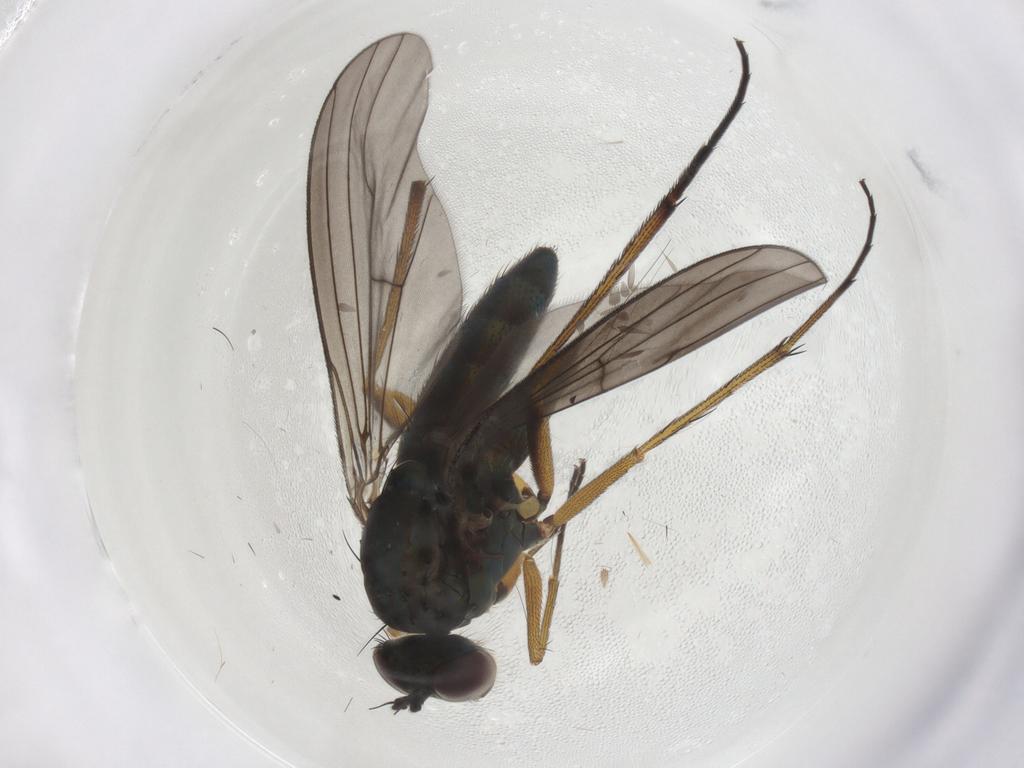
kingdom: Animalia
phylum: Arthropoda
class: Insecta
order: Diptera
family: Dolichopodidae
